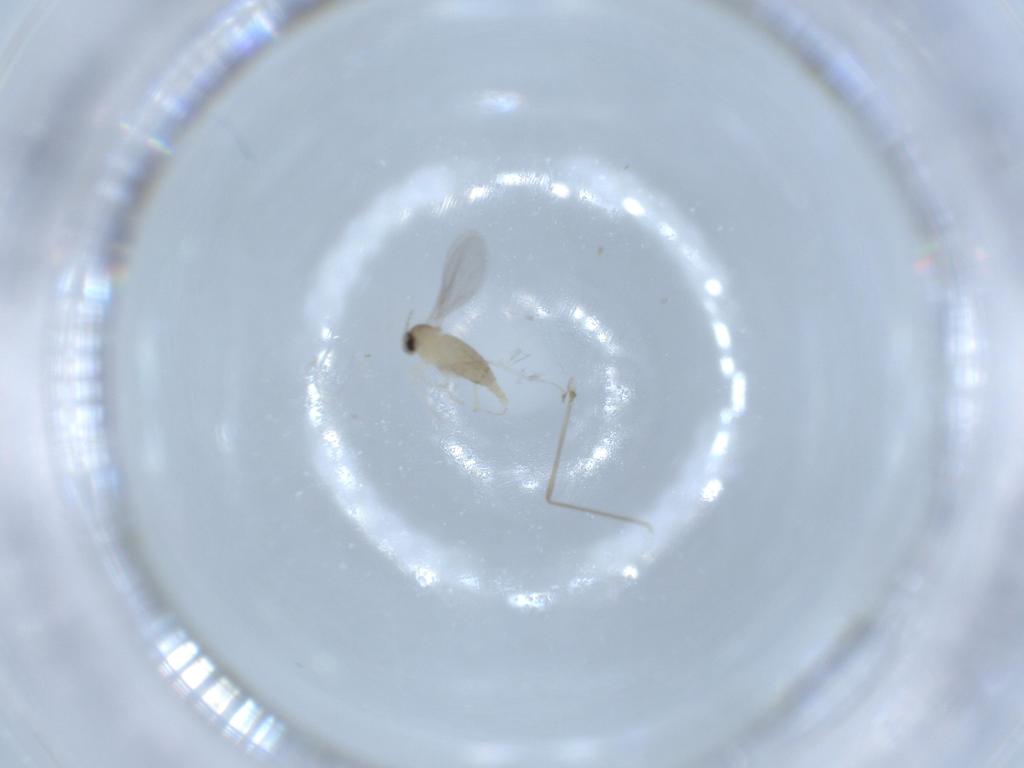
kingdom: Animalia
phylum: Arthropoda
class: Insecta
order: Diptera
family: Cecidomyiidae
